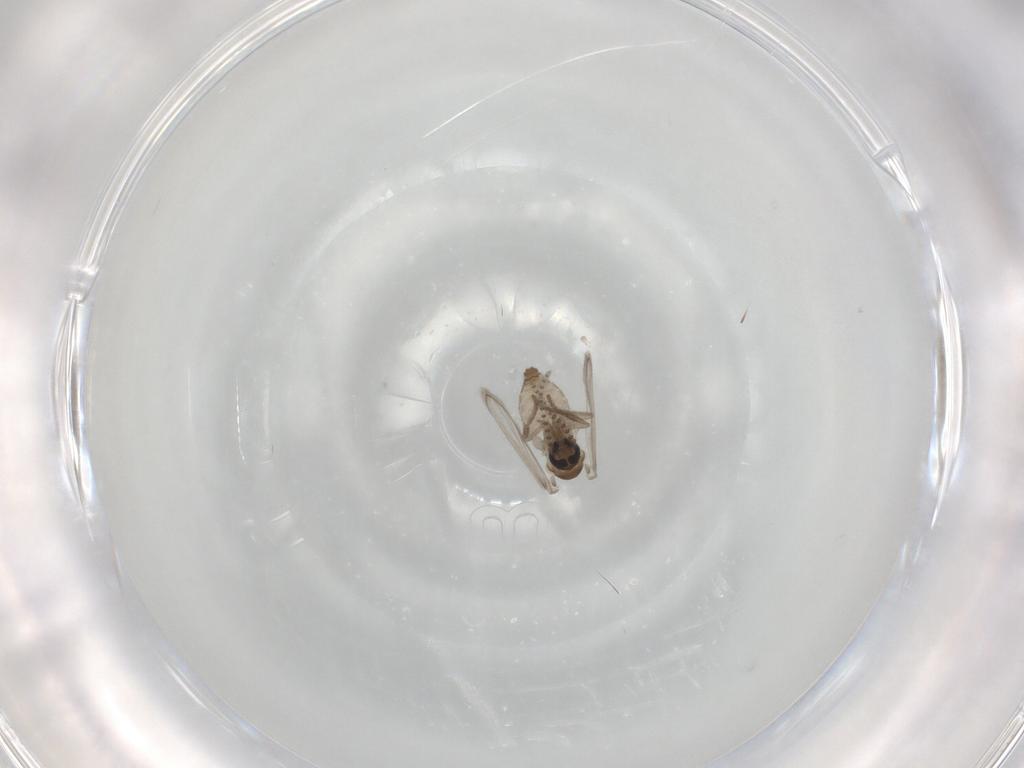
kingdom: Animalia
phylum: Arthropoda
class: Insecta
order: Diptera
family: Psychodidae
